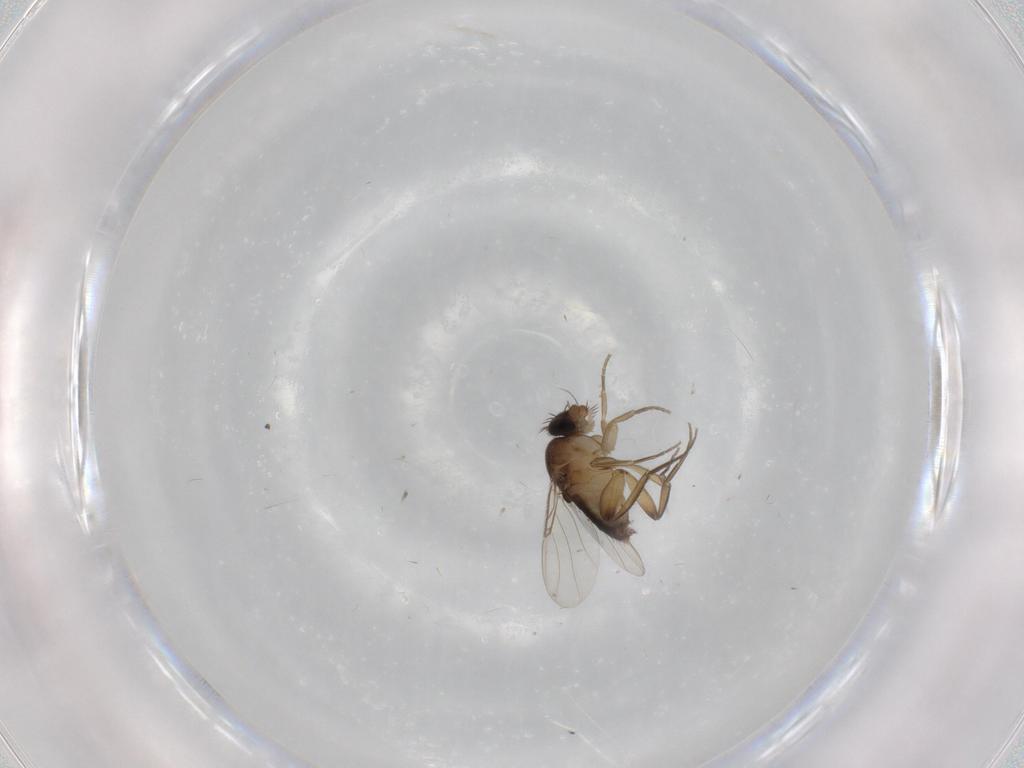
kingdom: Animalia
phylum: Arthropoda
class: Insecta
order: Diptera
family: Phoridae
